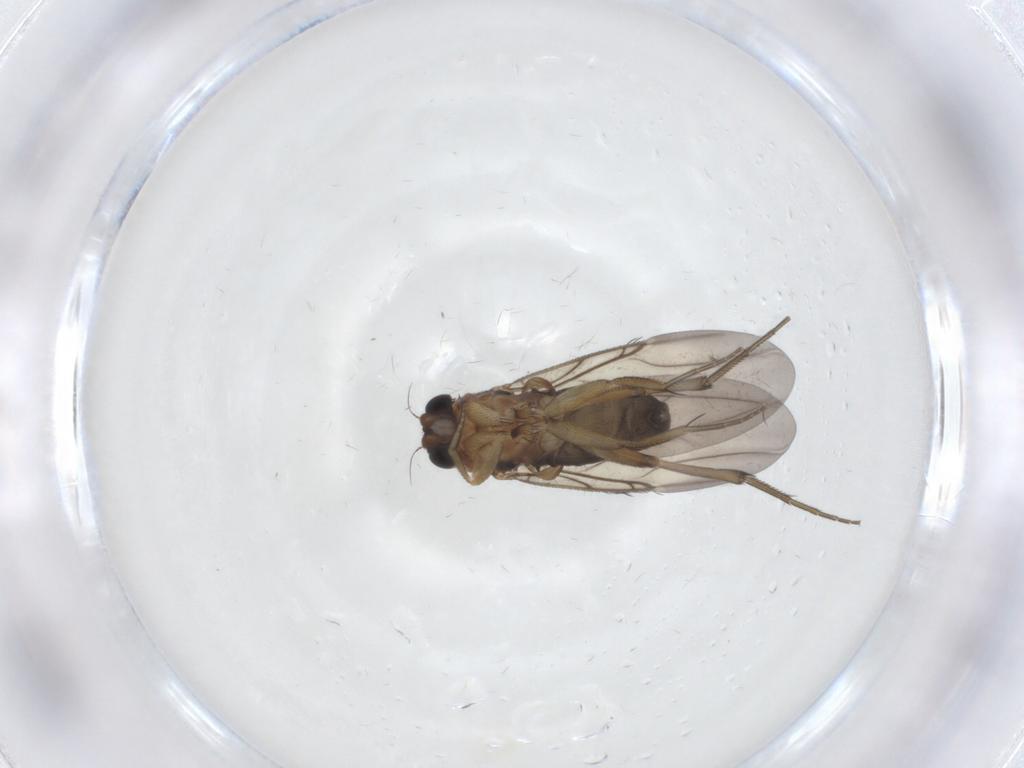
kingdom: Animalia
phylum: Arthropoda
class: Insecta
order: Diptera
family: Phoridae
